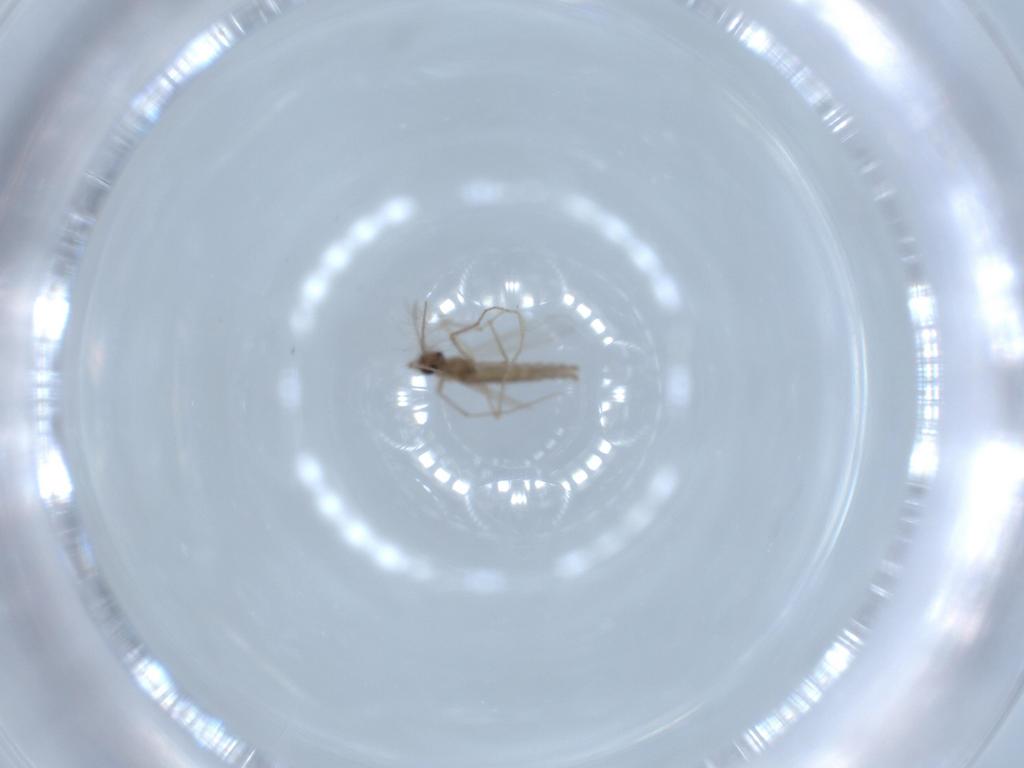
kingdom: Animalia
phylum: Arthropoda
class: Insecta
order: Diptera
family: Chironomidae
